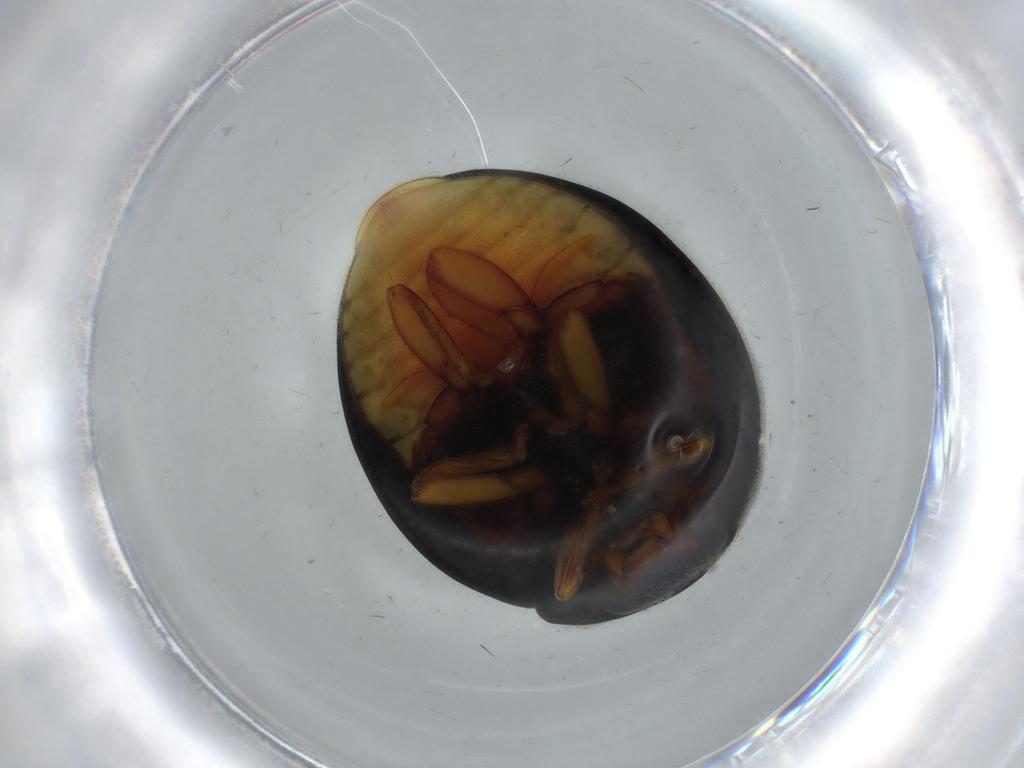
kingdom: Animalia
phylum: Arthropoda
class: Insecta
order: Coleoptera
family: Coccinellidae
